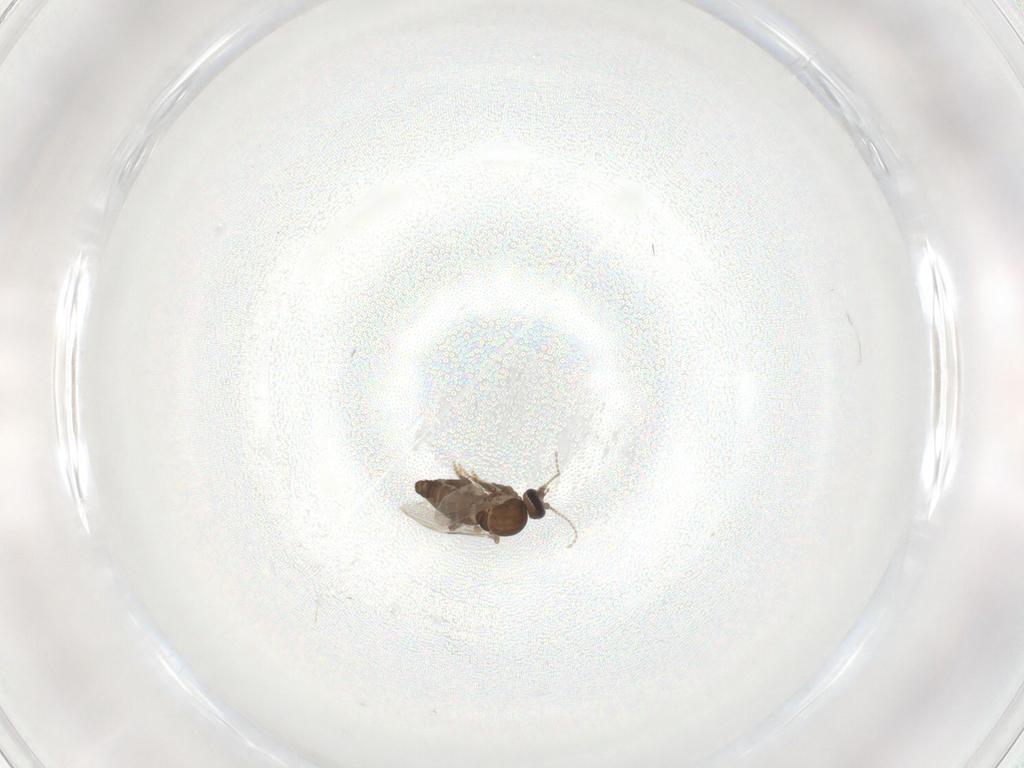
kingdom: Animalia
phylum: Arthropoda
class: Insecta
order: Diptera
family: Ceratopogonidae
